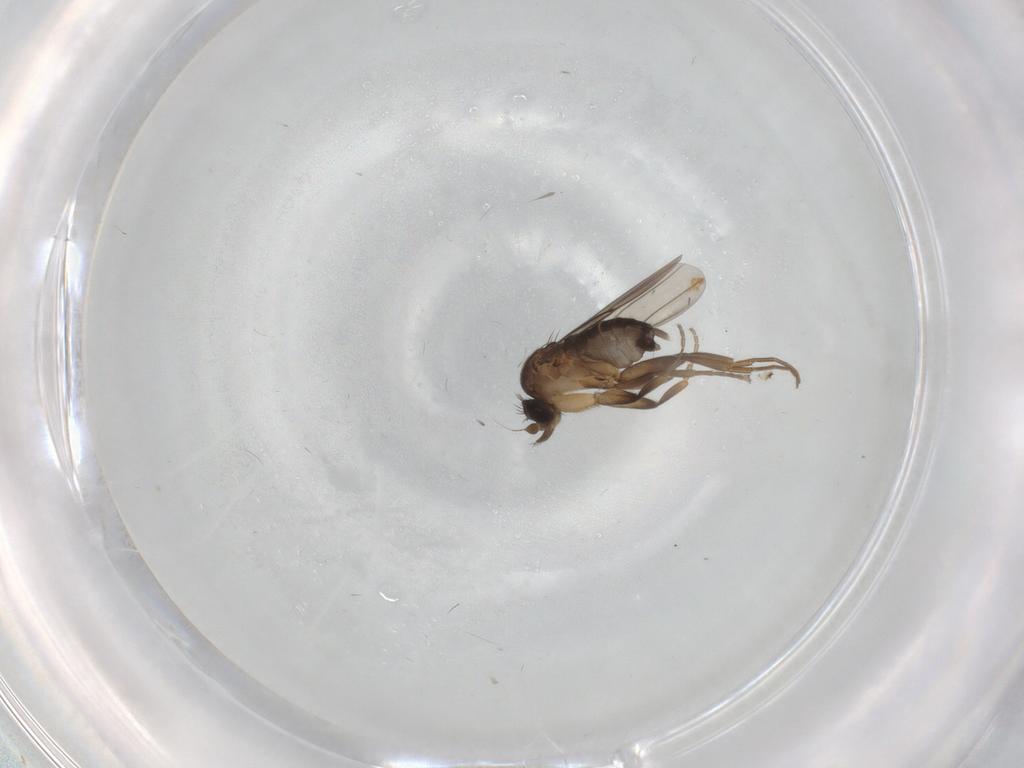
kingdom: Animalia
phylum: Arthropoda
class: Insecta
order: Diptera
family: Phoridae
